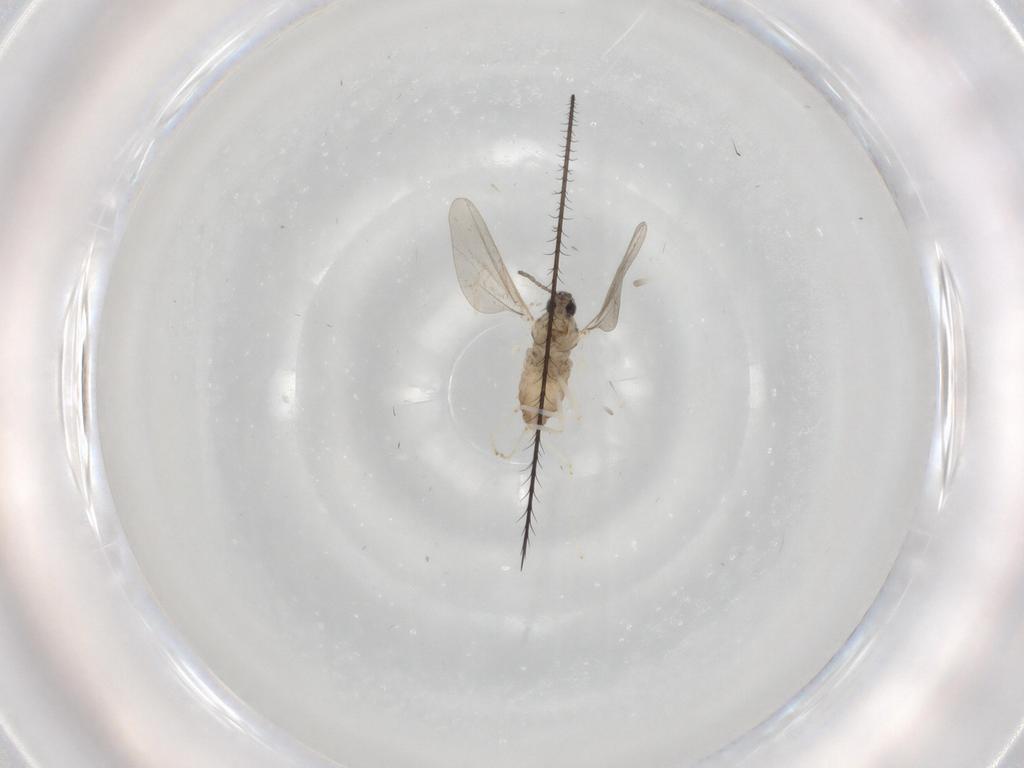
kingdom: Animalia
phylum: Arthropoda
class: Insecta
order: Diptera
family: Cecidomyiidae
